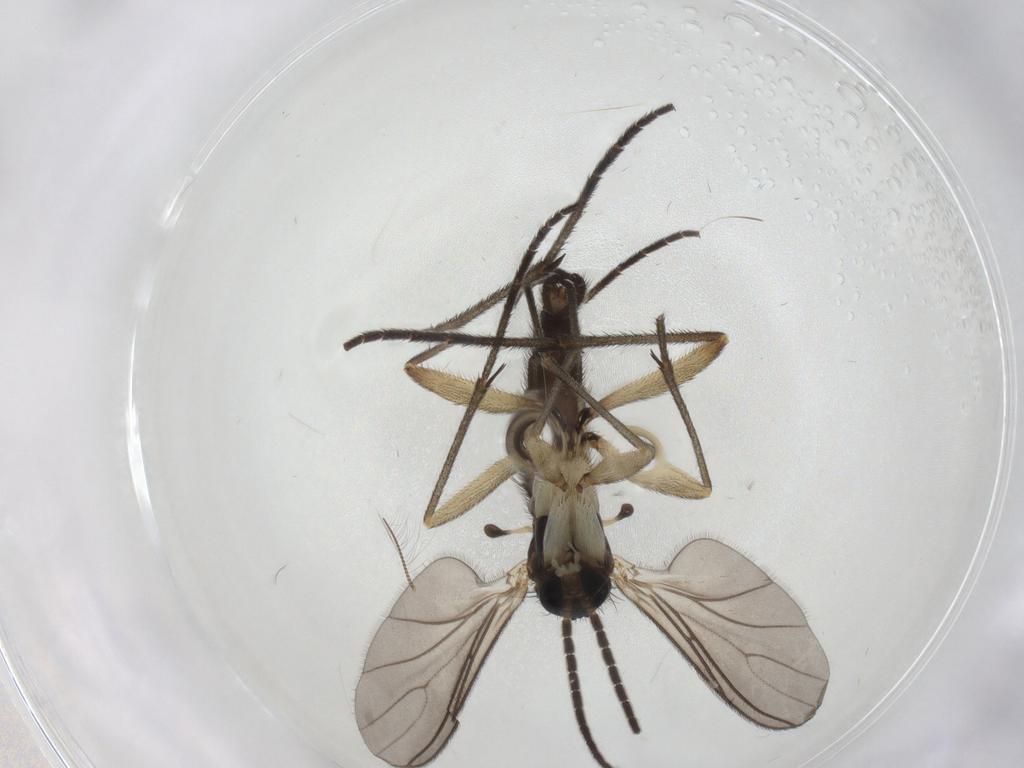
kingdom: Animalia
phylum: Arthropoda
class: Insecta
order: Diptera
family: Sciaridae
